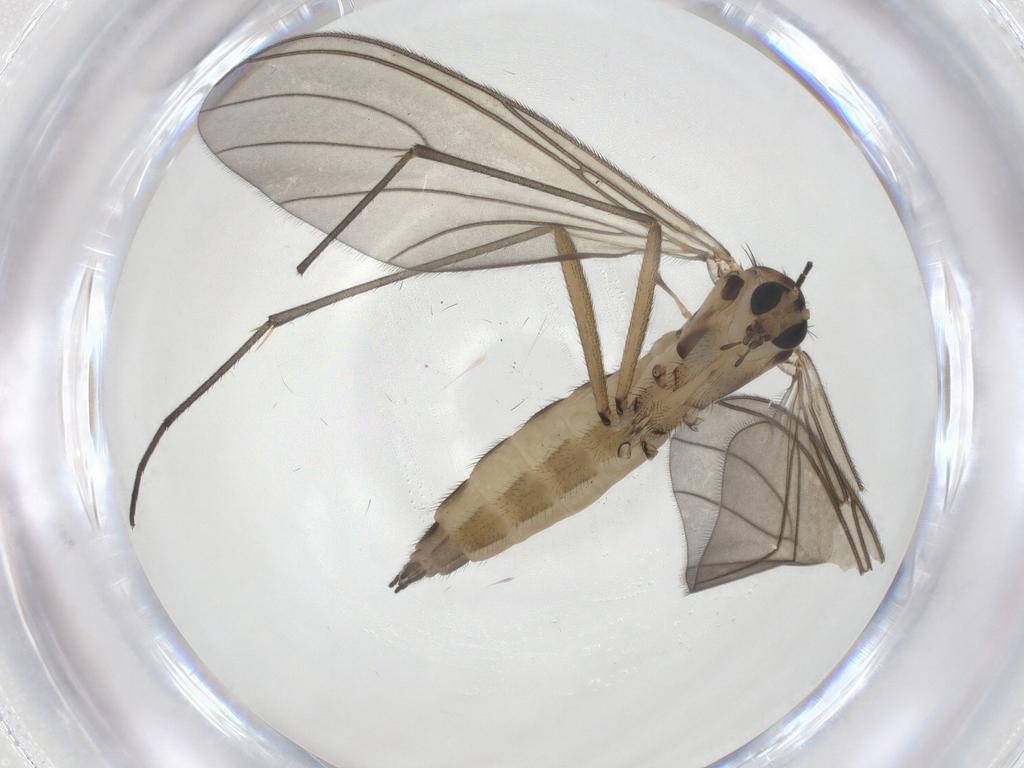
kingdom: Animalia
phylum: Arthropoda
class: Insecta
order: Diptera
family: Sciaridae
